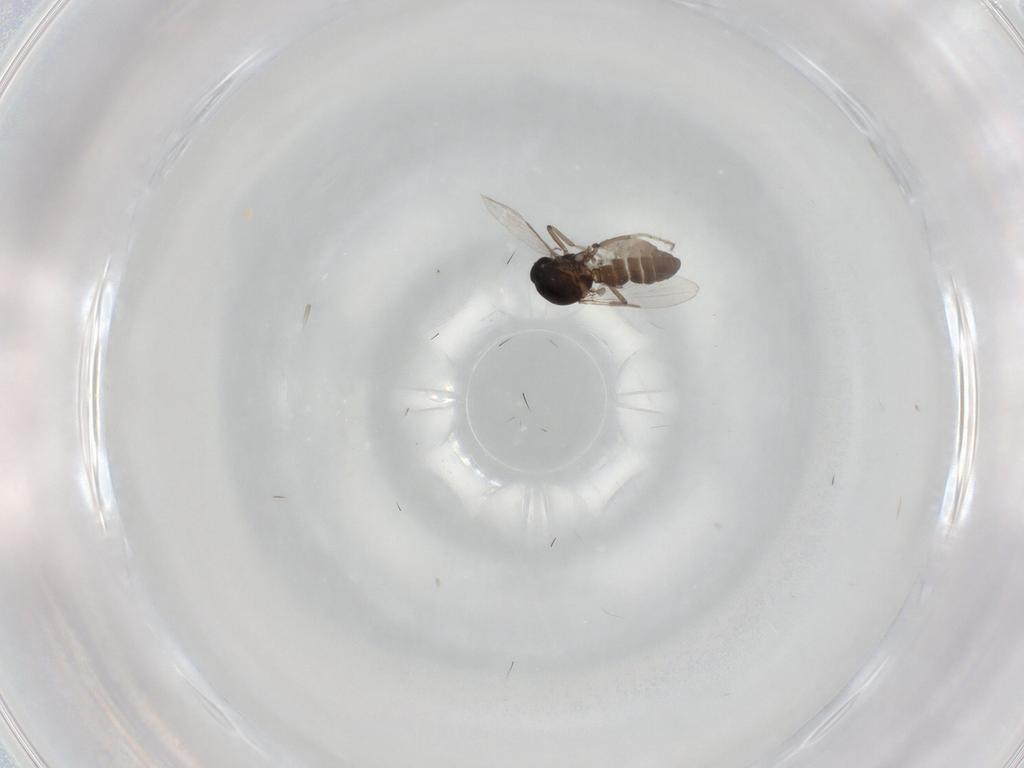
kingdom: Animalia
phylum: Arthropoda
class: Insecta
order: Diptera
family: Ceratopogonidae
